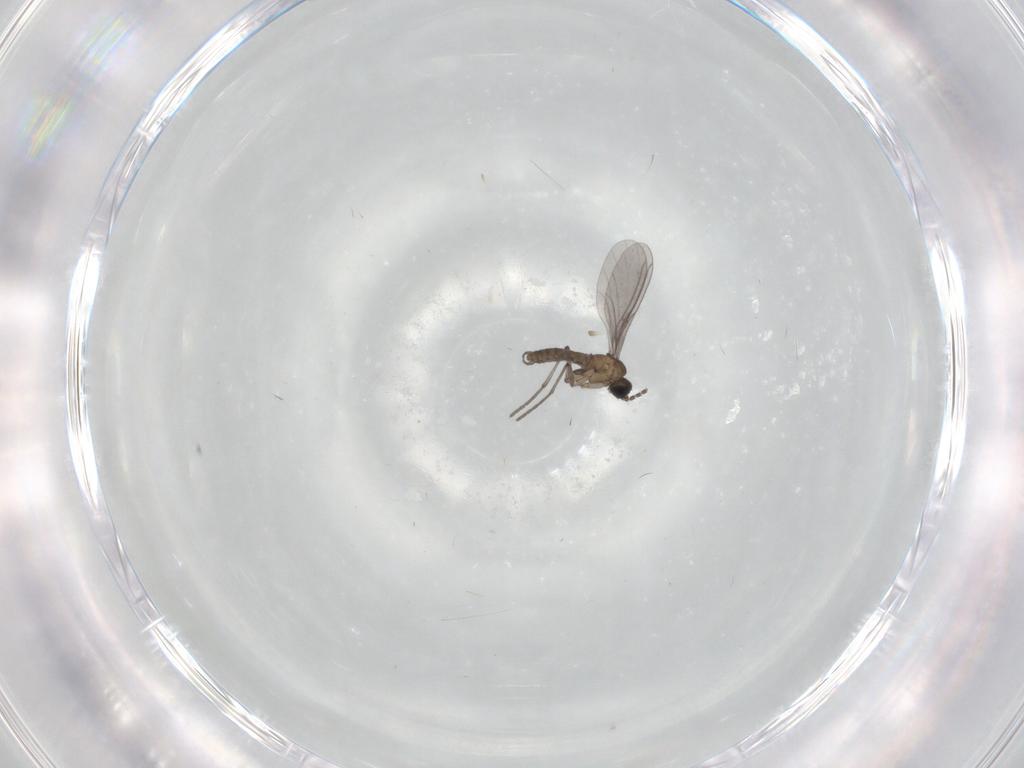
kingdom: Animalia
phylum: Arthropoda
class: Insecta
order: Diptera
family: Sciaridae
